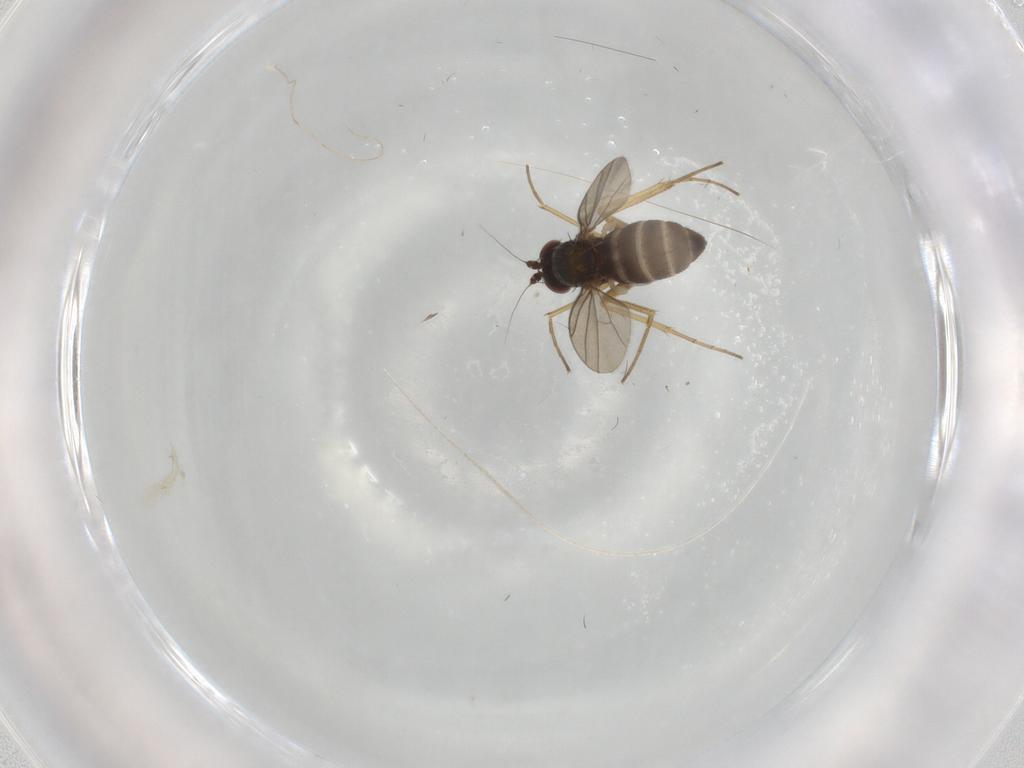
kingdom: Animalia
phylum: Arthropoda
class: Insecta
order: Diptera
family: Dolichopodidae
